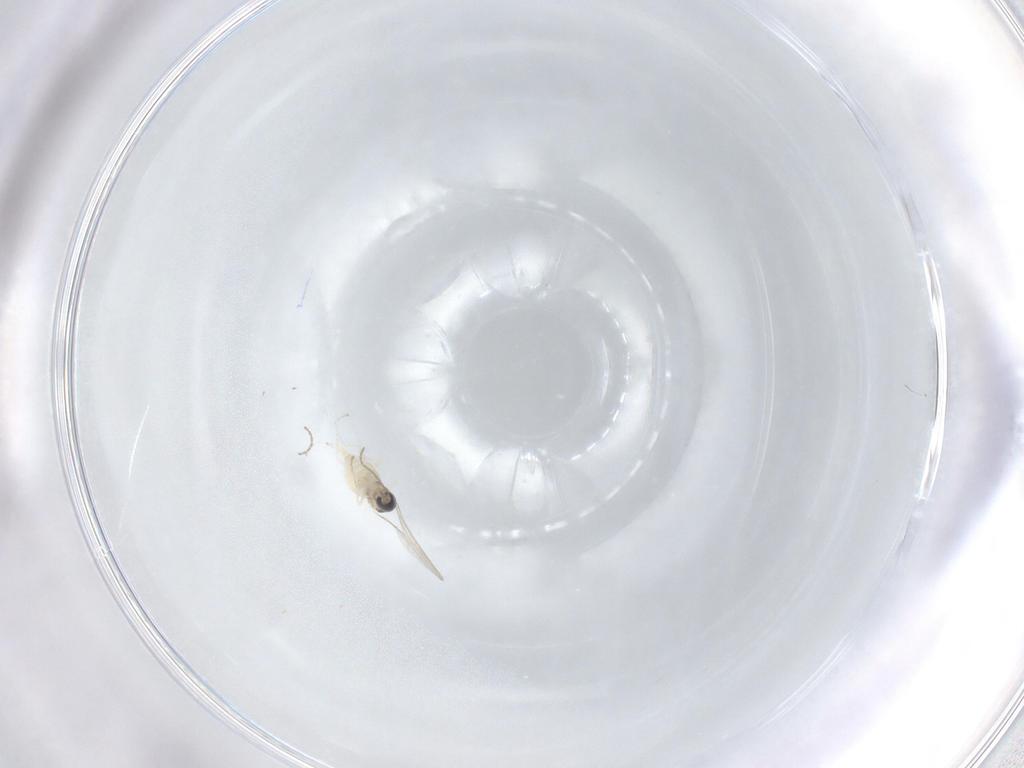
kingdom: Animalia
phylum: Arthropoda
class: Insecta
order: Diptera
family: Cecidomyiidae
